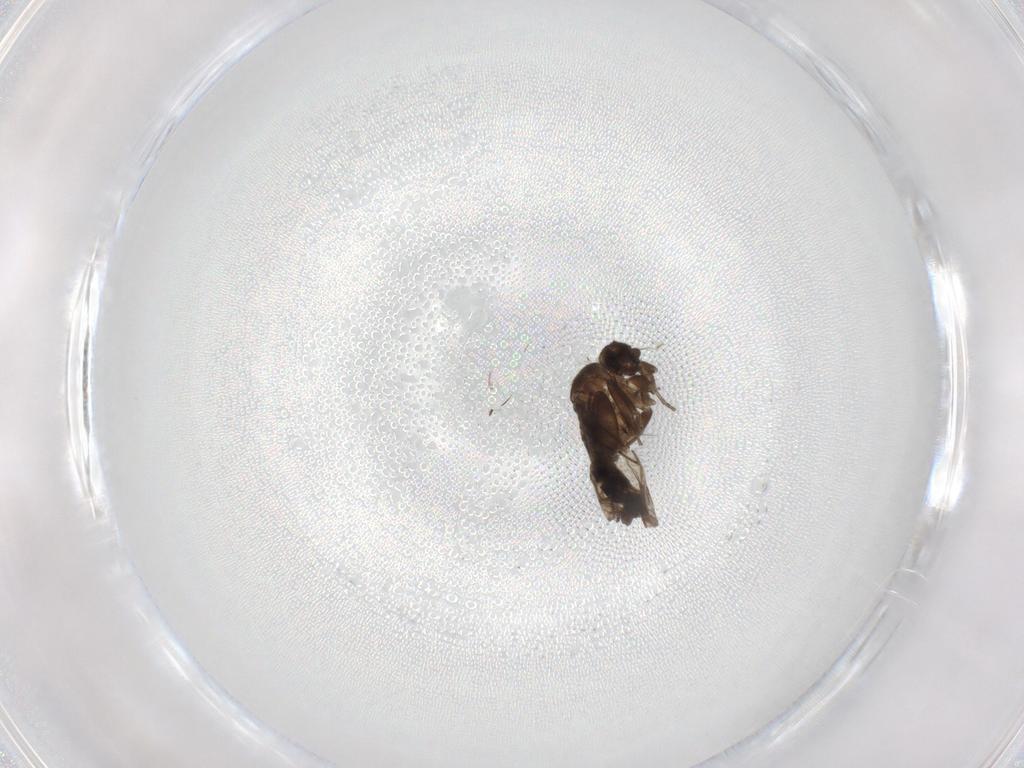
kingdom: Animalia
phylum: Arthropoda
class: Insecta
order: Diptera
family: Phoridae
